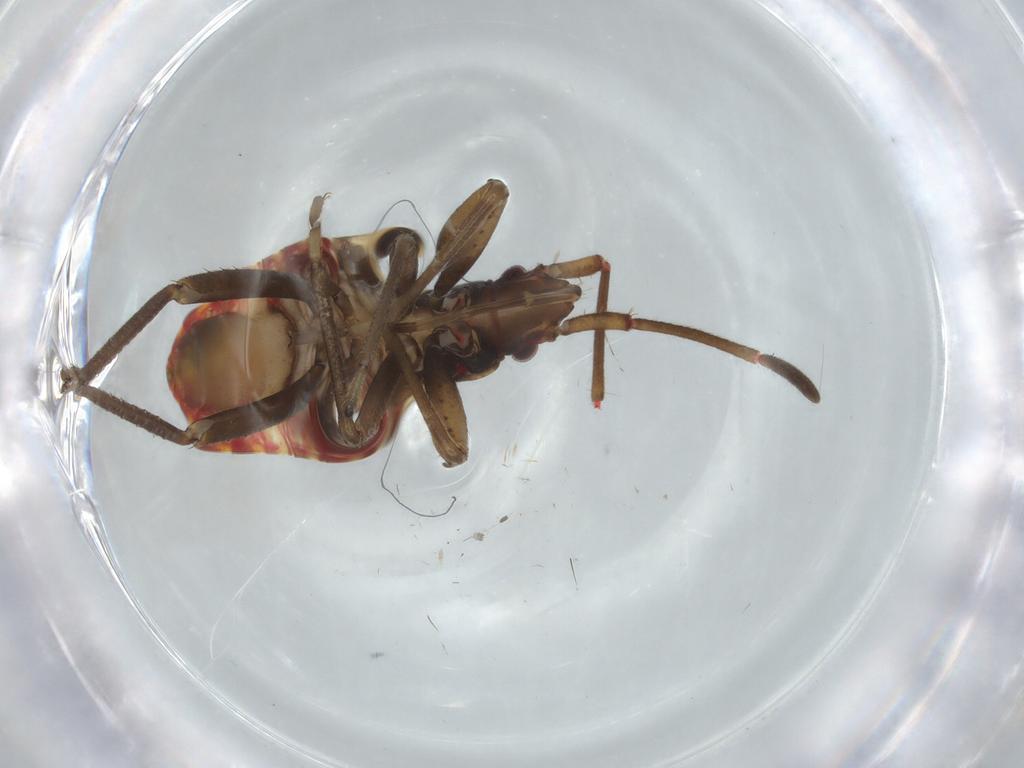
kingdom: Animalia
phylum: Arthropoda
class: Insecta
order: Hemiptera
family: Rhyparochromidae
